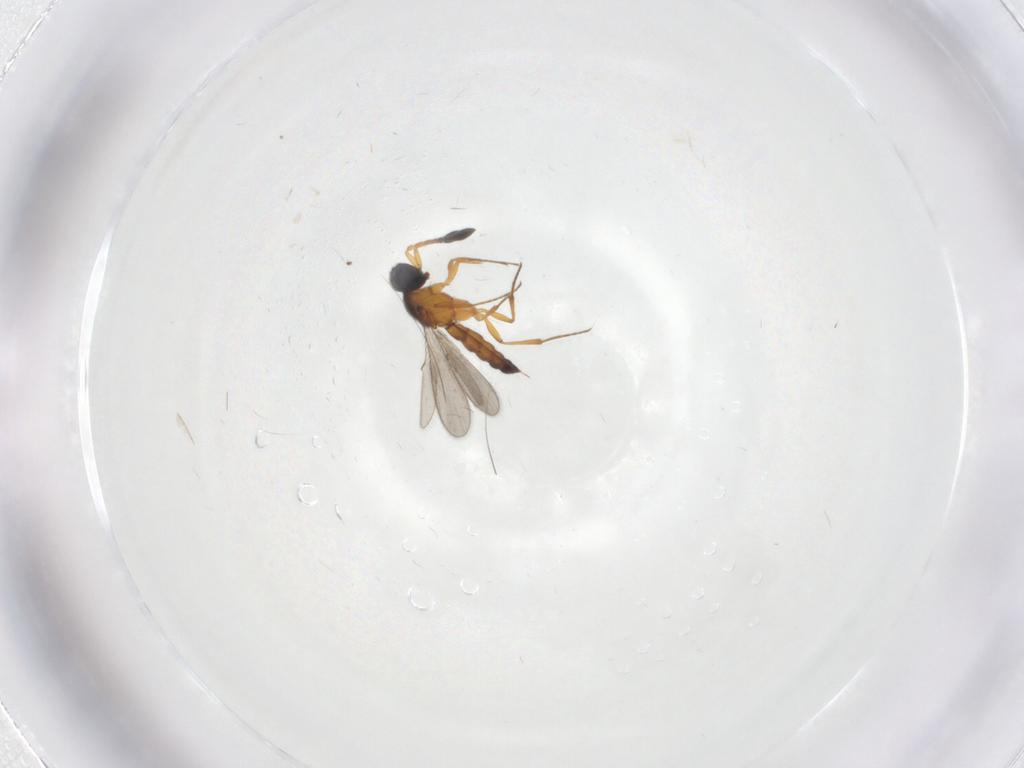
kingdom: Animalia
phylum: Arthropoda
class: Insecta
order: Hymenoptera
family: Scelionidae
